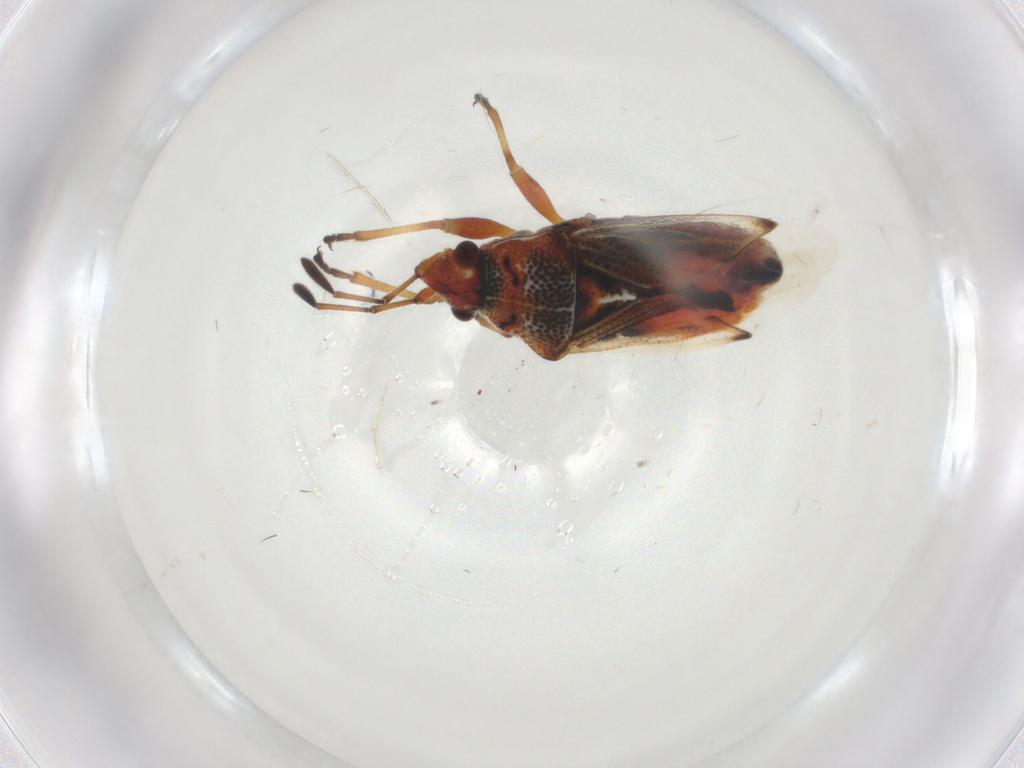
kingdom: Animalia
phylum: Arthropoda
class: Insecta
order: Hemiptera
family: Lygaeidae
